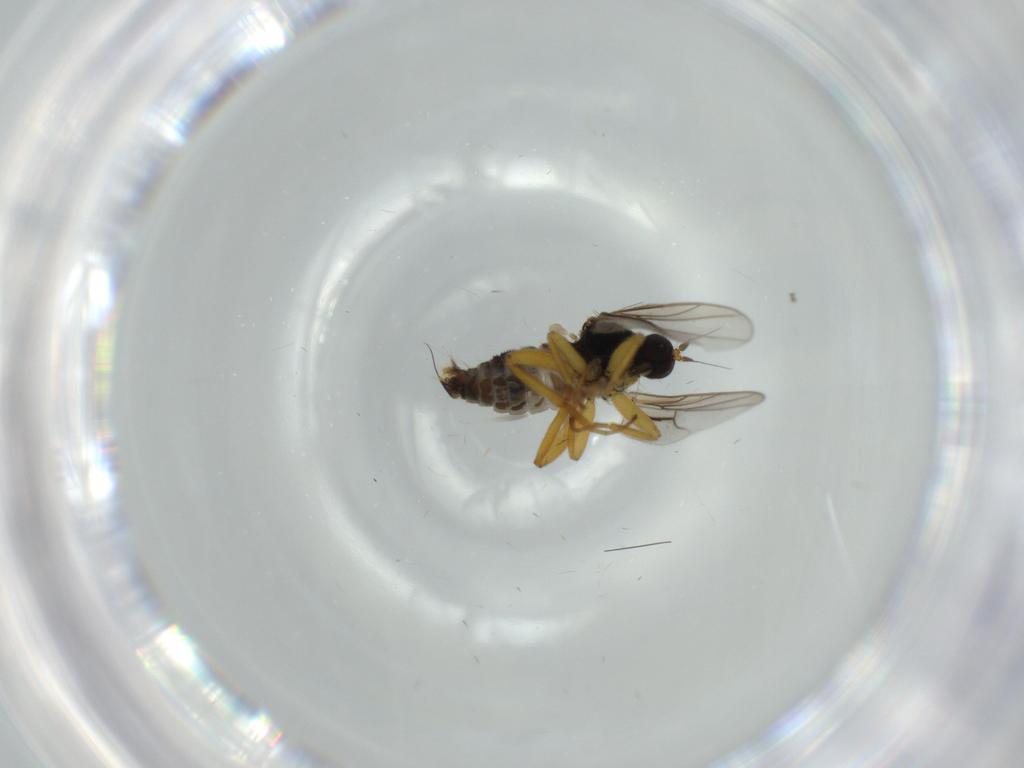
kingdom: Animalia
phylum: Arthropoda
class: Insecta
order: Diptera
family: Hybotidae
